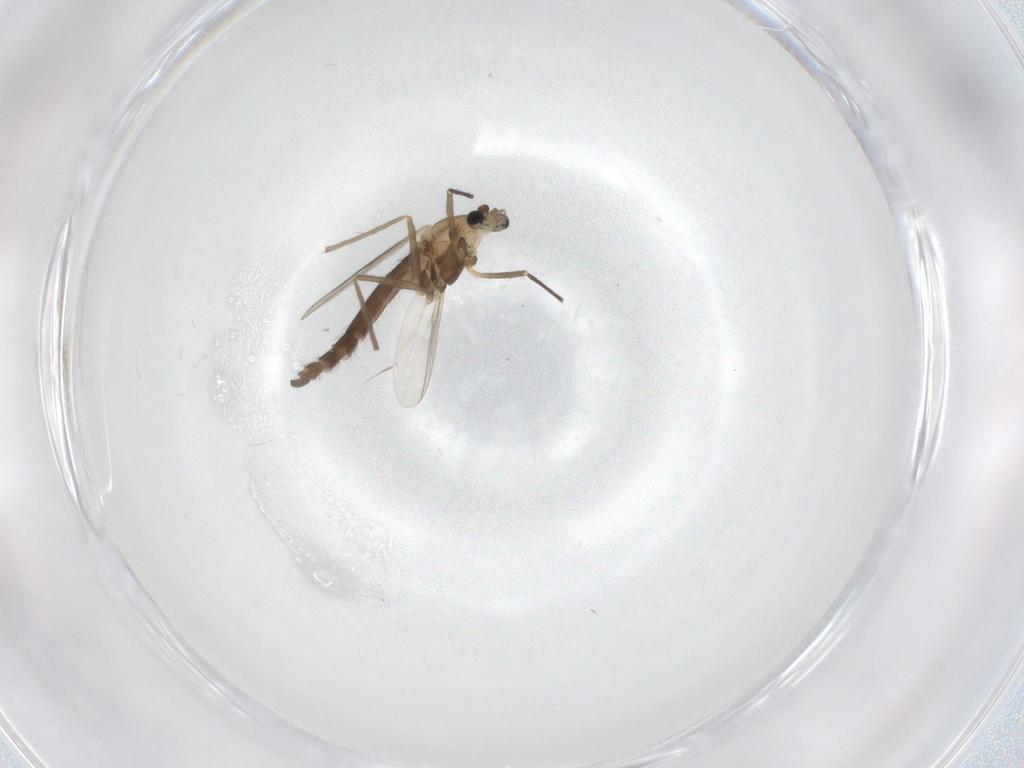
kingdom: Animalia
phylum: Arthropoda
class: Insecta
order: Diptera
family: Chironomidae
